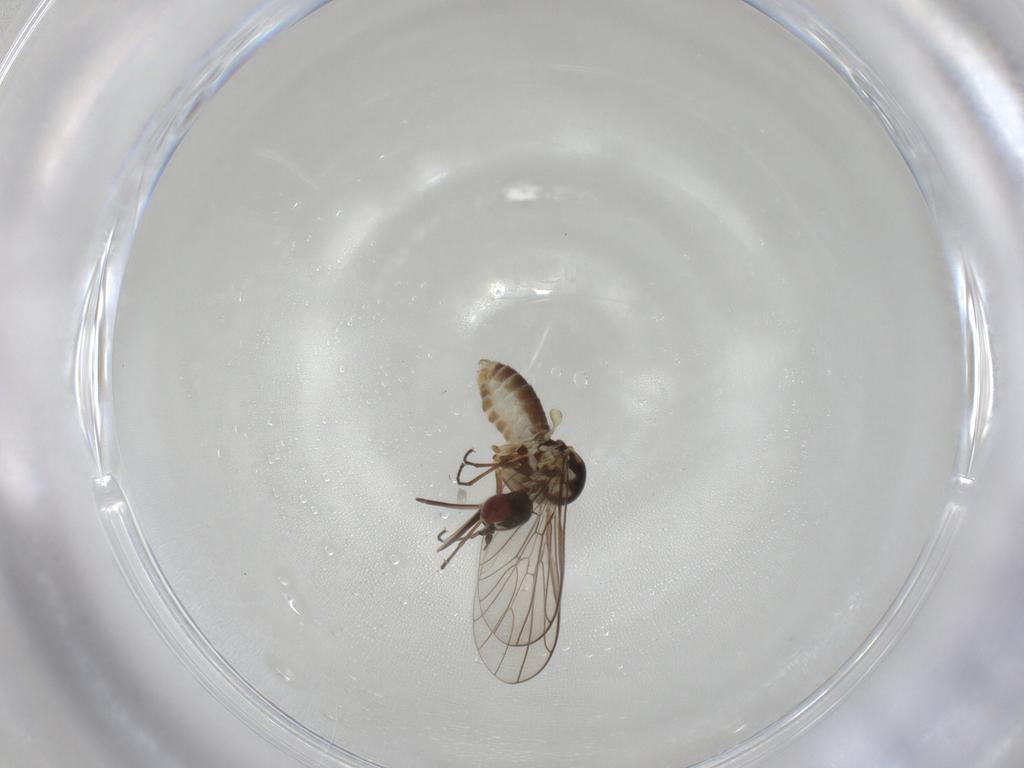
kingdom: Animalia
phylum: Arthropoda
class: Insecta
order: Diptera
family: Bombyliidae
